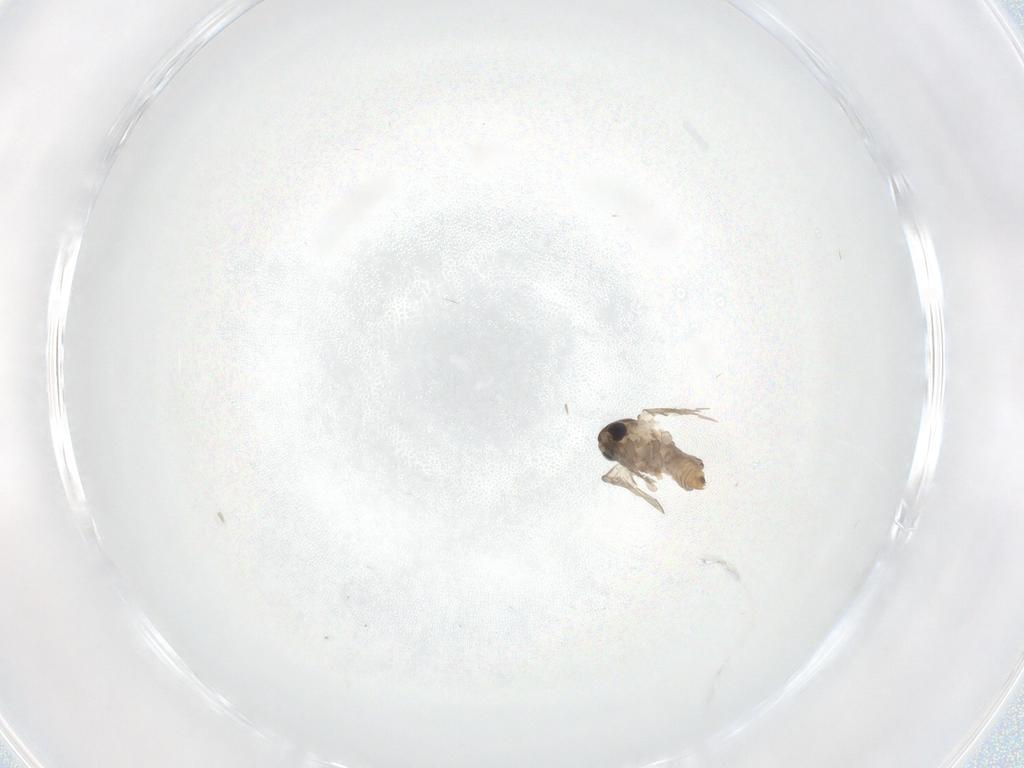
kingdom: Animalia
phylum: Arthropoda
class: Insecta
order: Diptera
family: Psychodidae
